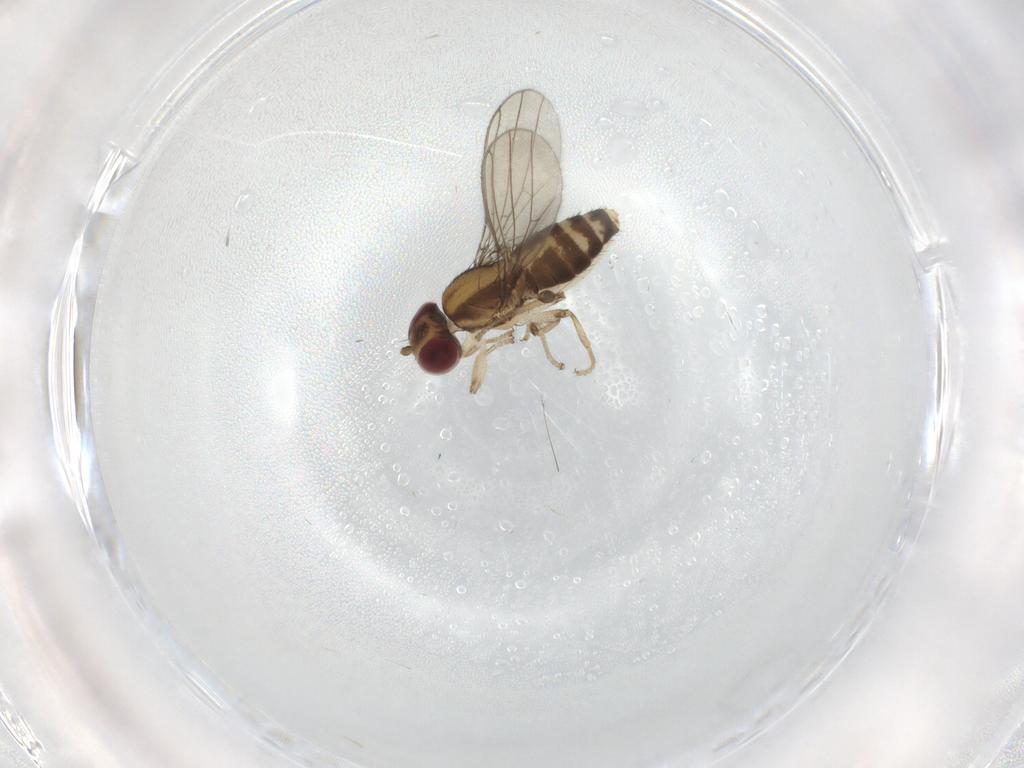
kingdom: Animalia
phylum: Arthropoda
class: Insecta
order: Diptera
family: Anthomyzidae
